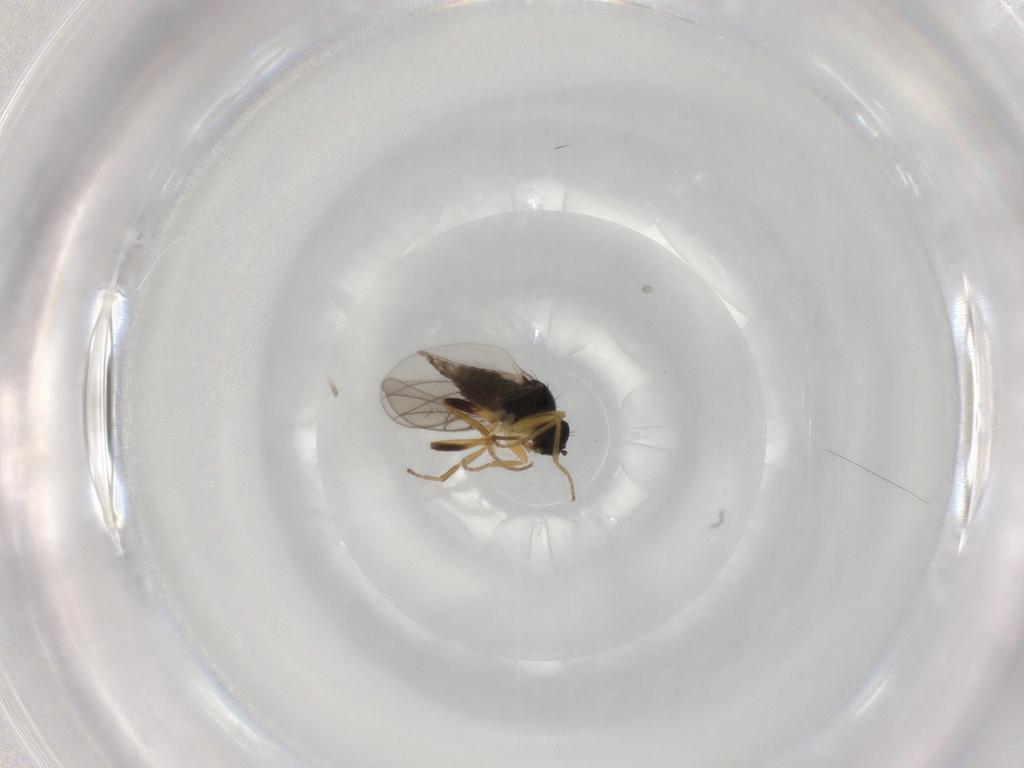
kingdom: Animalia
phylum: Arthropoda
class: Insecta
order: Diptera
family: Hybotidae
